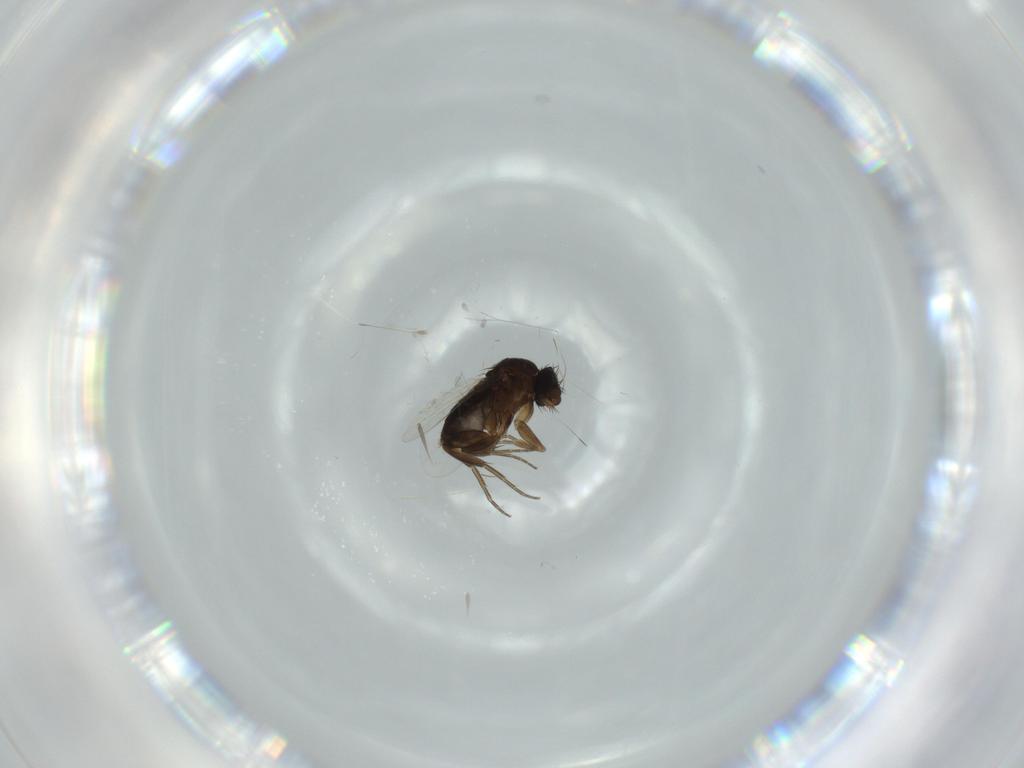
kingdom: Animalia
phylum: Arthropoda
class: Insecta
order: Diptera
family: Phoridae
